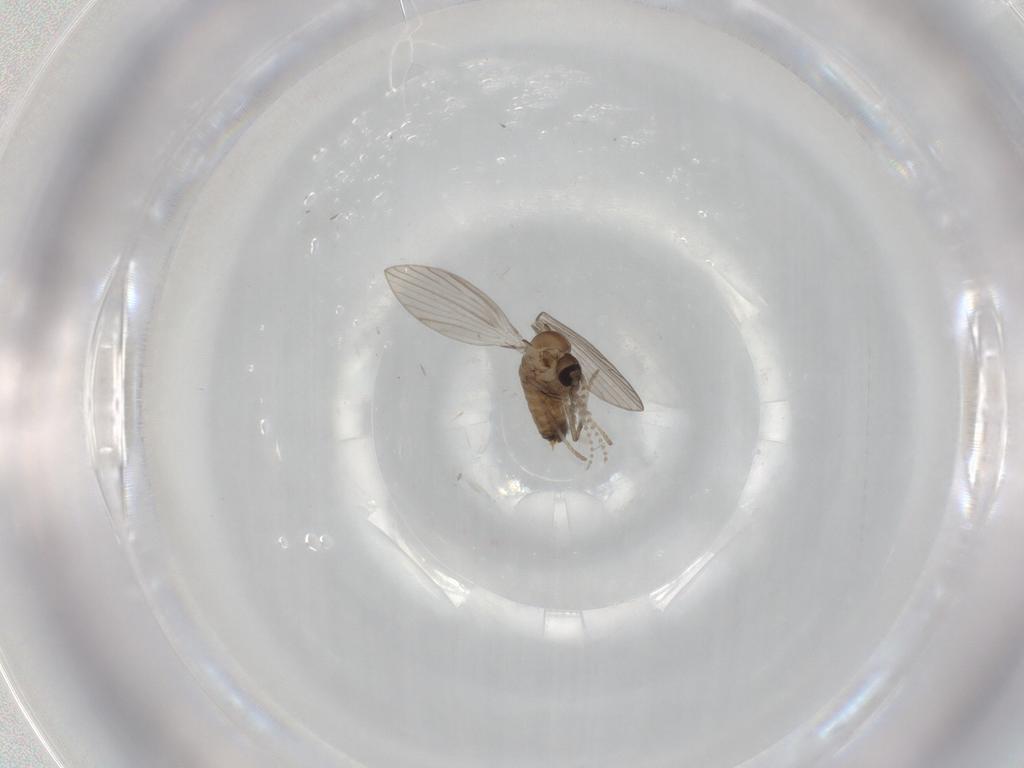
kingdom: Animalia
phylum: Arthropoda
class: Insecta
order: Diptera
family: Psychodidae
